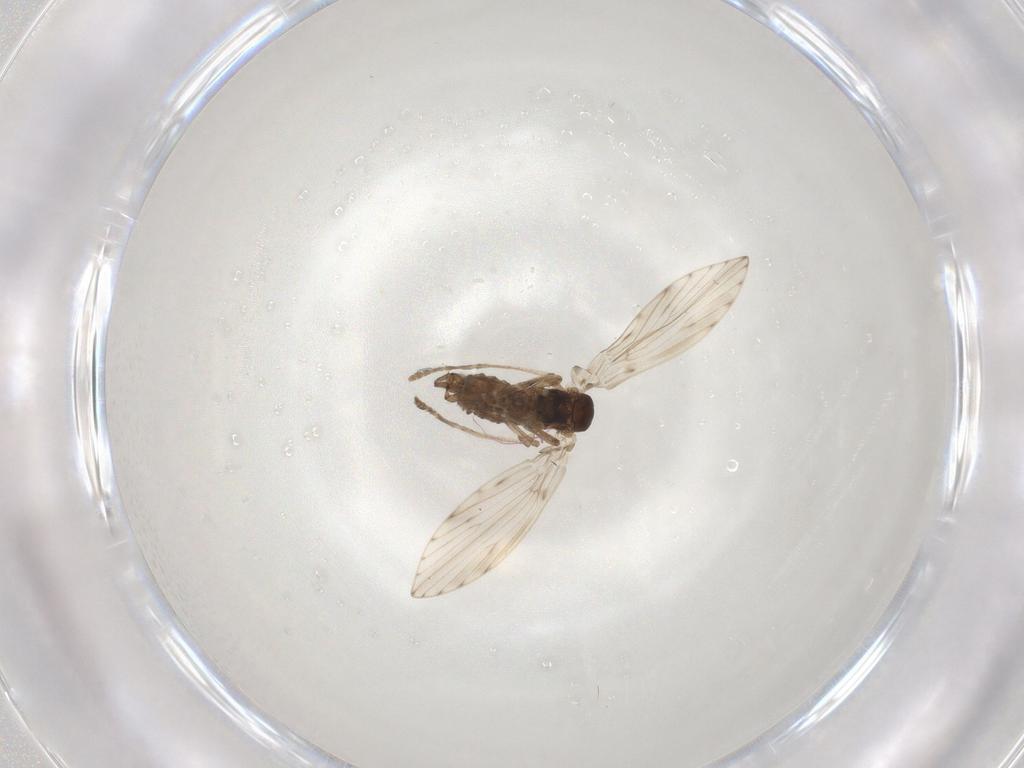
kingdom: Animalia
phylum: Arthropoda
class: Insecta
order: Diptera
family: Psychodidae
